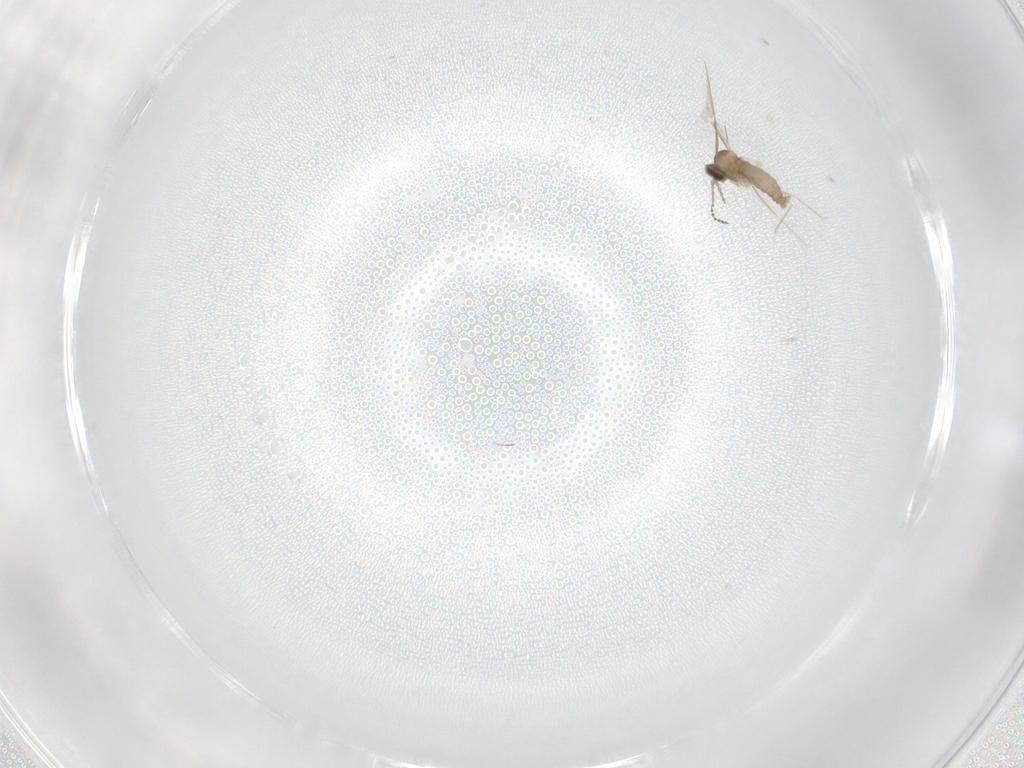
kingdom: Animalia
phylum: Arthropoda
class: Insecta
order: Diptera
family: Cecidomyiidae
